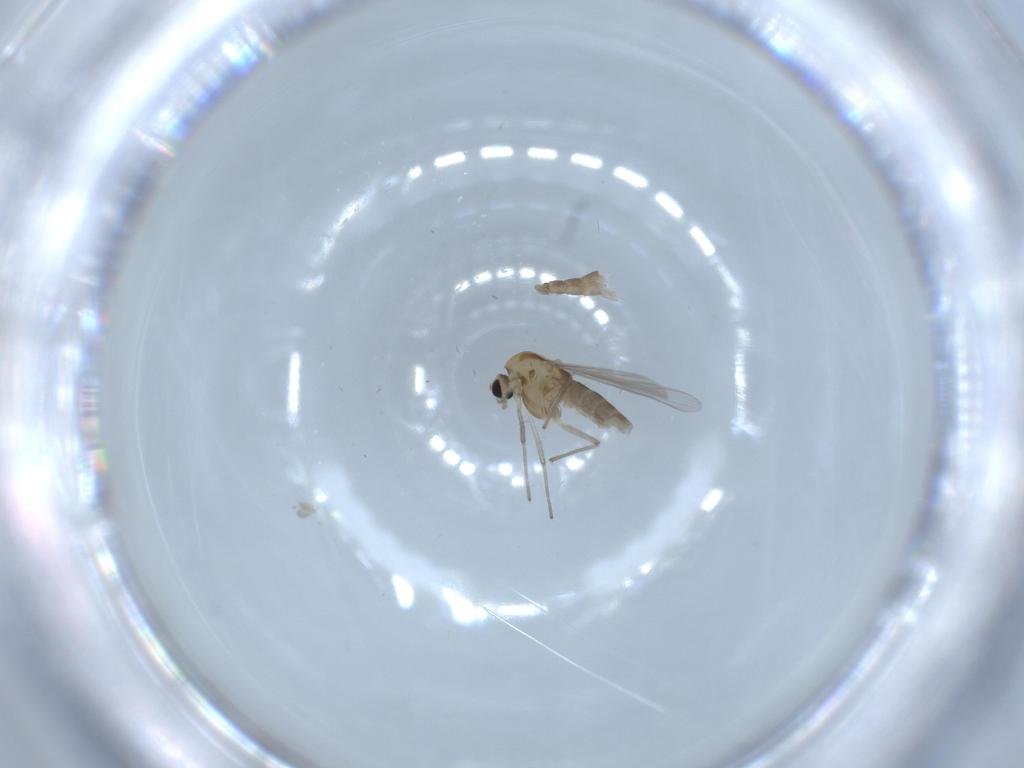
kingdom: Animalia
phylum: Arthropoda
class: Insecta
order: Diptera
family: Chironomidae
